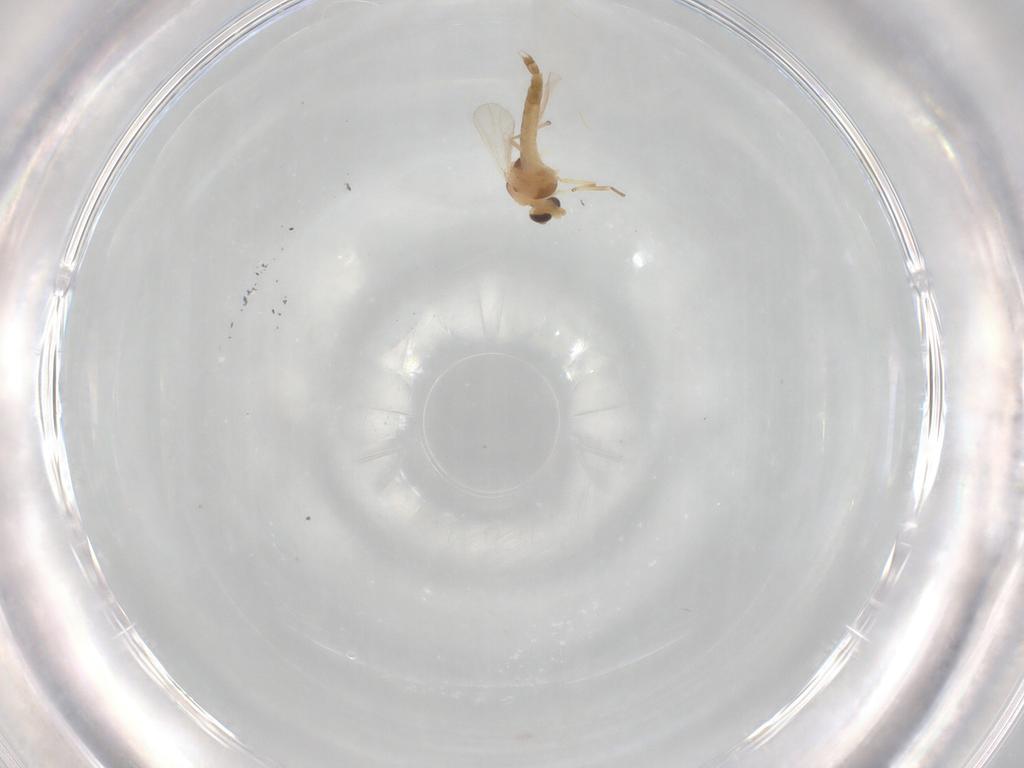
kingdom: Animalia
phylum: Arthropoda
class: Insecta
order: Diptera
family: Chironomidae
